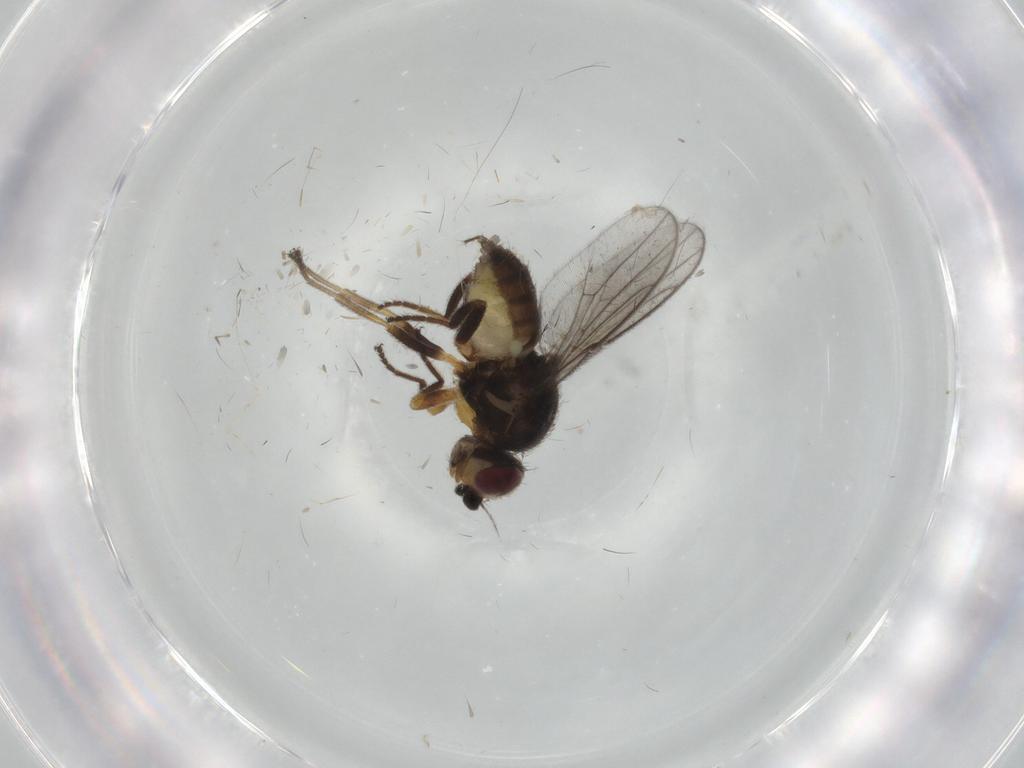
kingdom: Animalia
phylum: Arthropoda
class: Insecta
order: Diptera
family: Chloropidae
